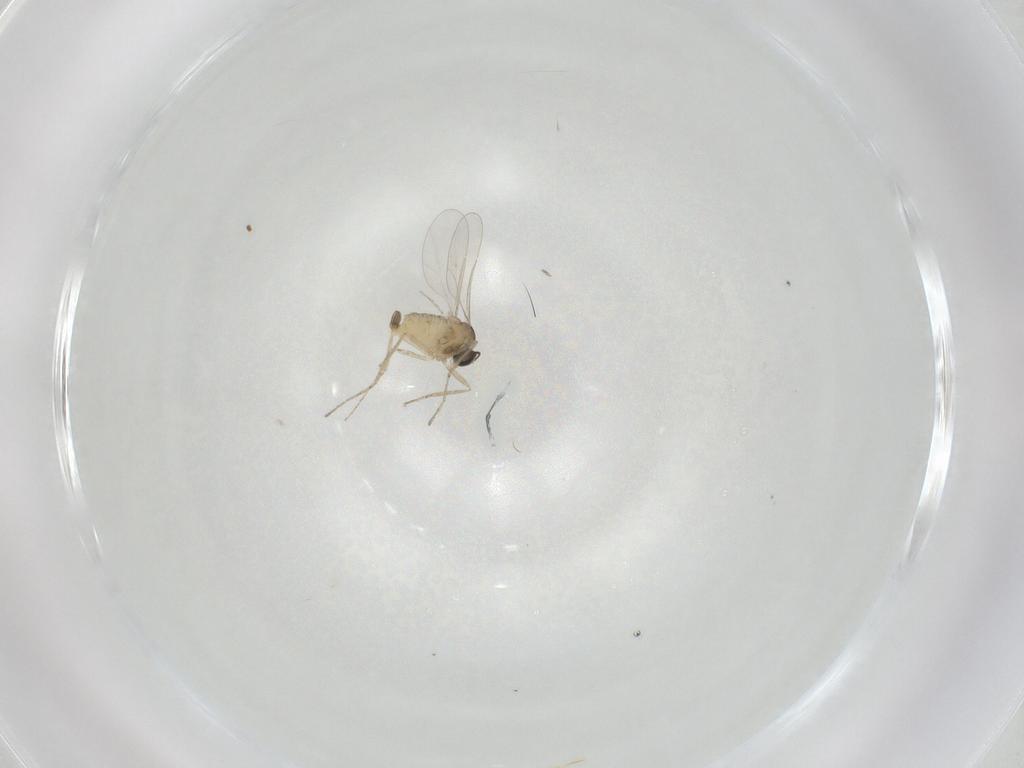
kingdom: Animalia
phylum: Arthropoda
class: Insecta
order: Diptera
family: Cecidomyiidae
